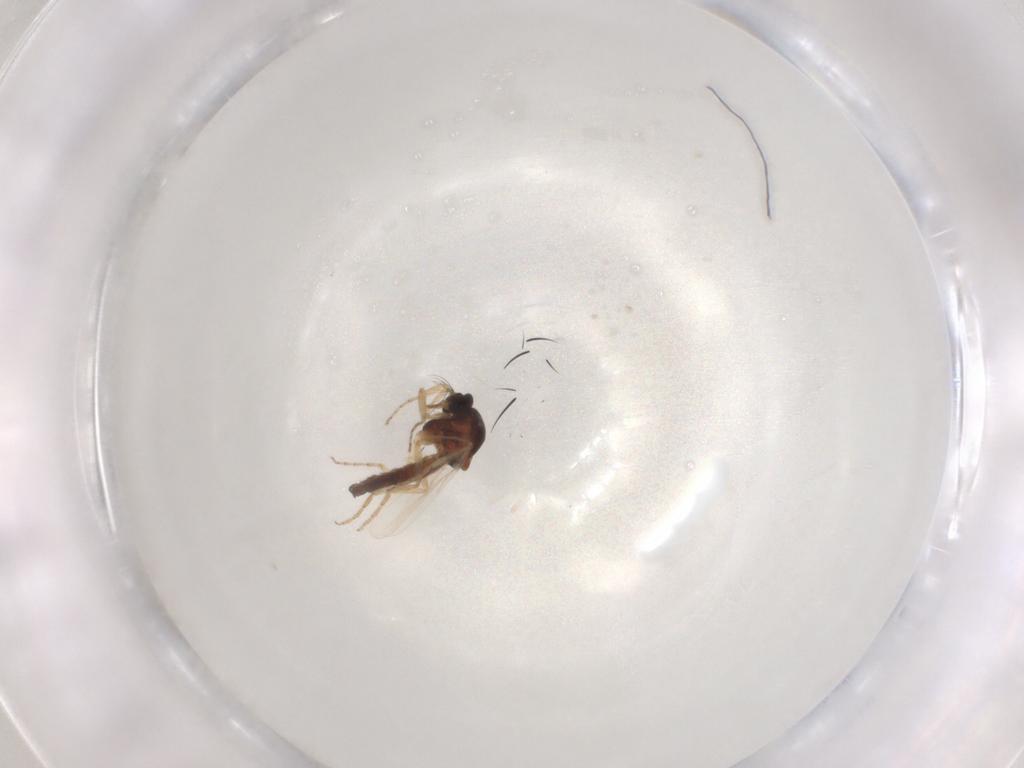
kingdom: Animalia
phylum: Arthropoda
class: Insecta
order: Diptera
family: Ceratopogonidae
